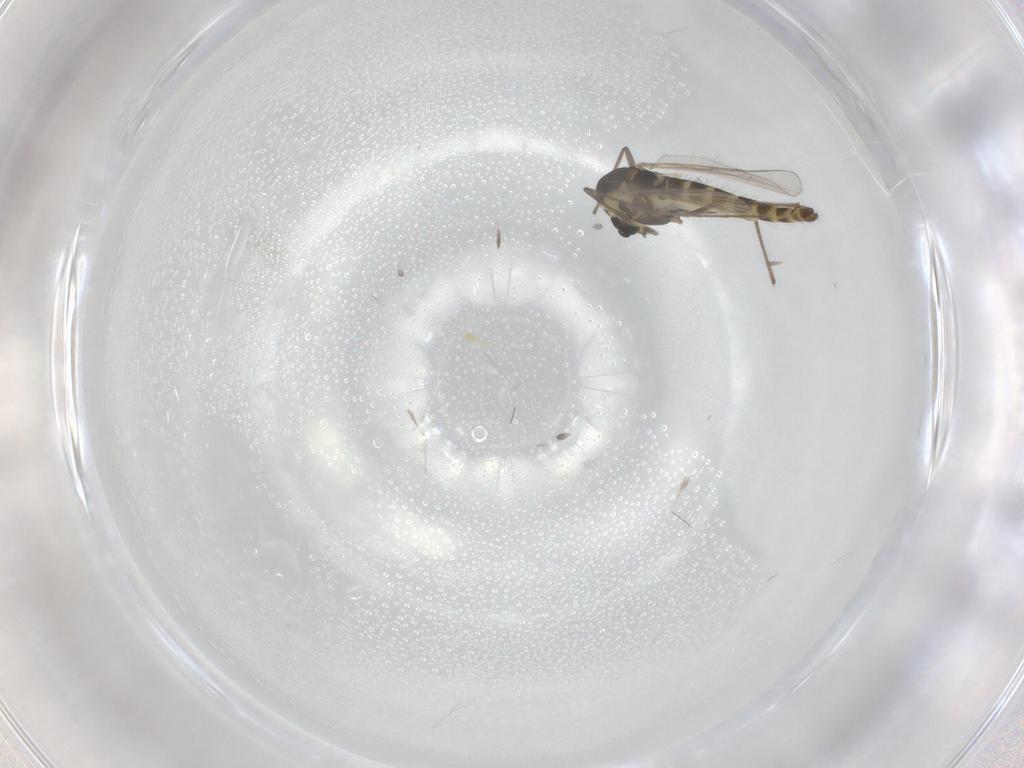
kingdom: Animalia
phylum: Arthropoda
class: Insecta
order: Diptera
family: Chironomidae
